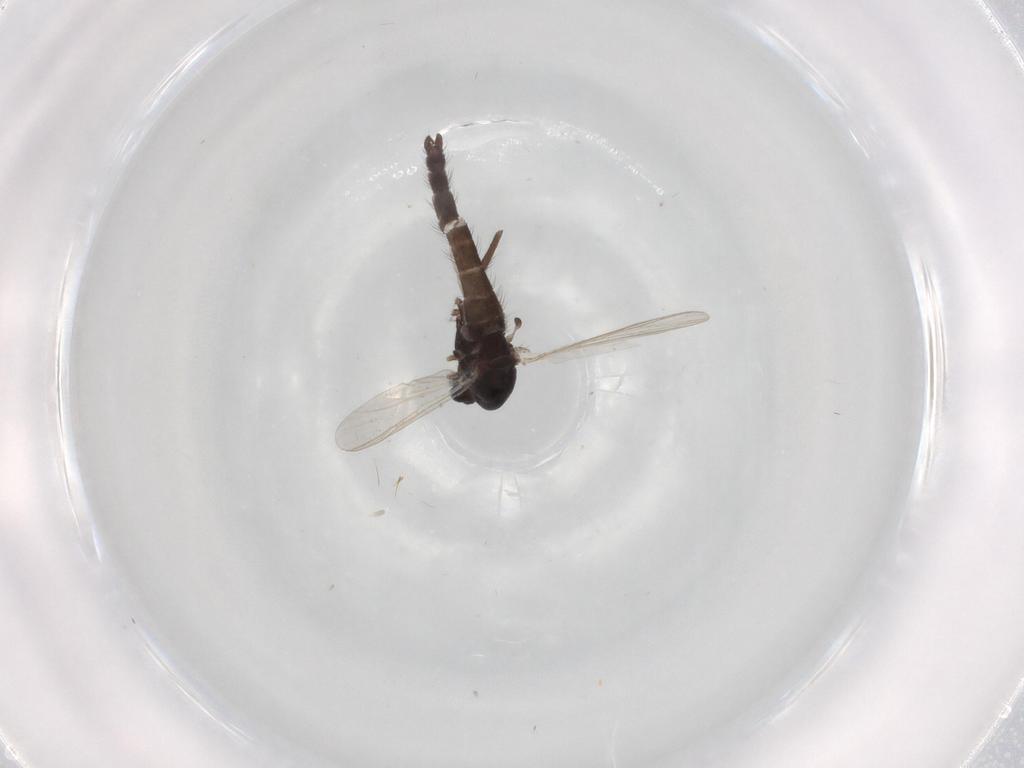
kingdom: Animalia
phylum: Arthropoda
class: Insecta
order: Diptera
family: Chironomidae
